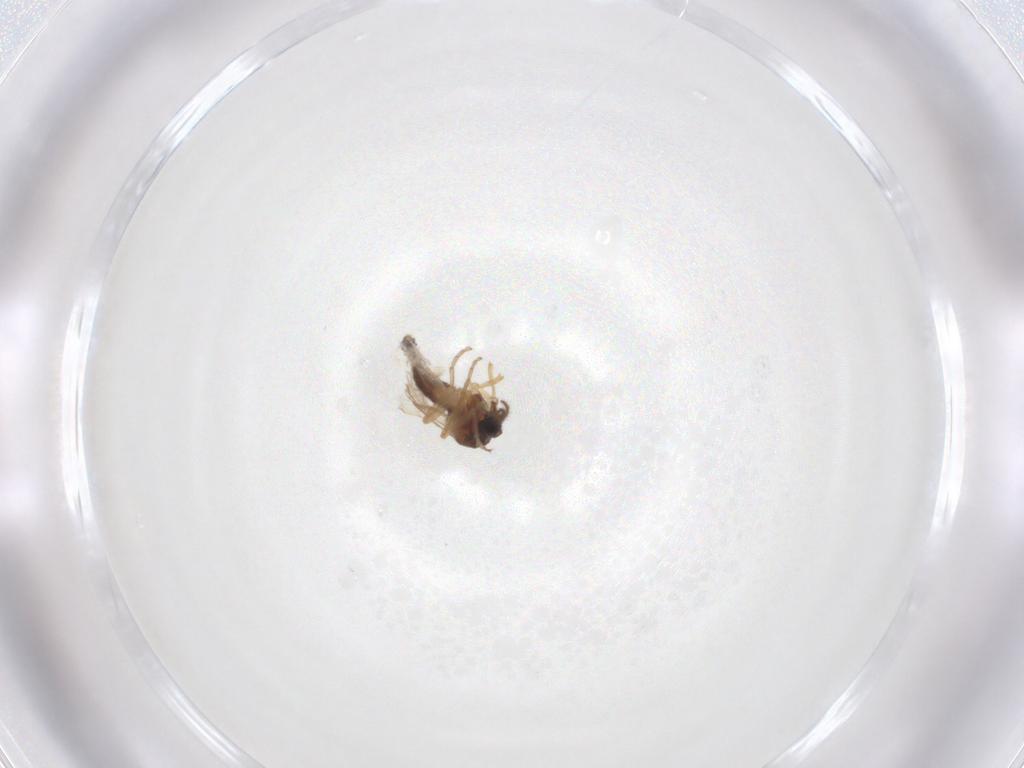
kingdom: Animalia
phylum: Arthropoda
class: Insecta
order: Diptera
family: Ceratopogonidae
